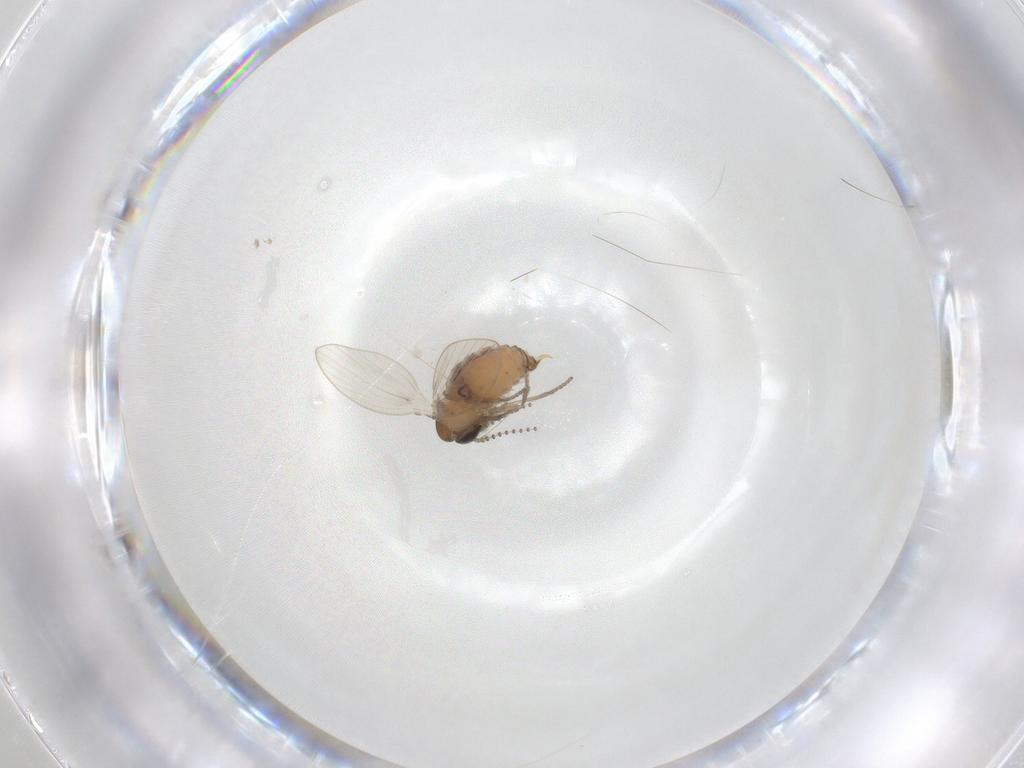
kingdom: Animalia
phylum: Arthropoda
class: Insecta
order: Diptera
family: Psychodidae
